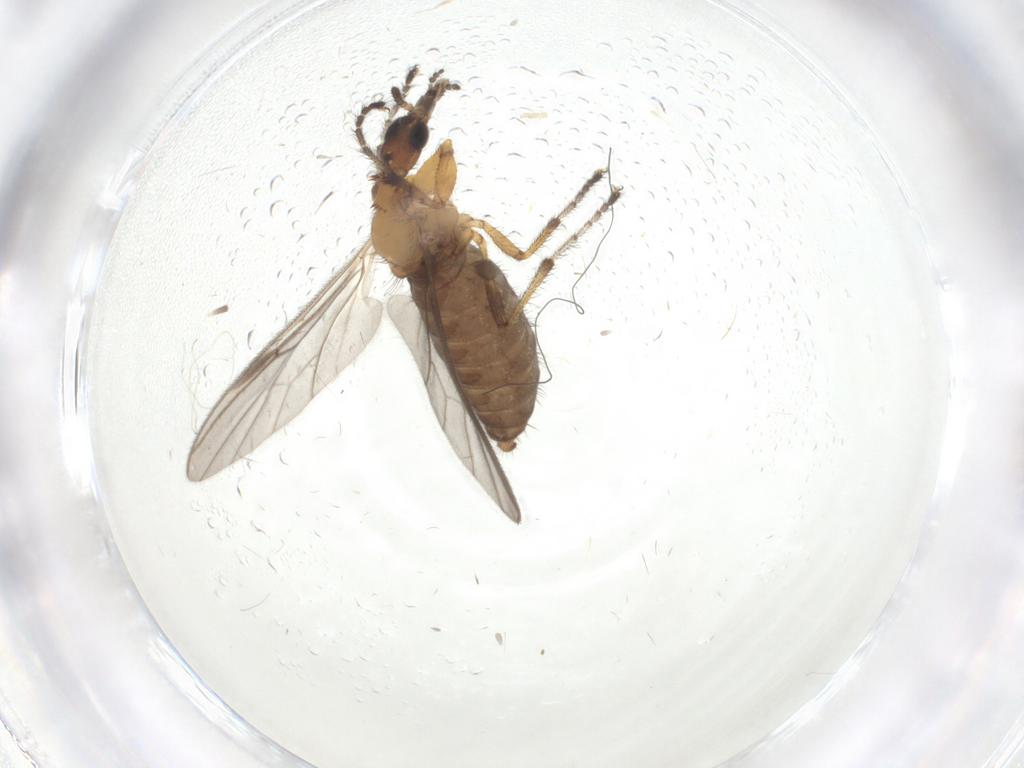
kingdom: Animalia
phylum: Arthropoda
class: Insecta
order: Diptera
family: Bibionidae
